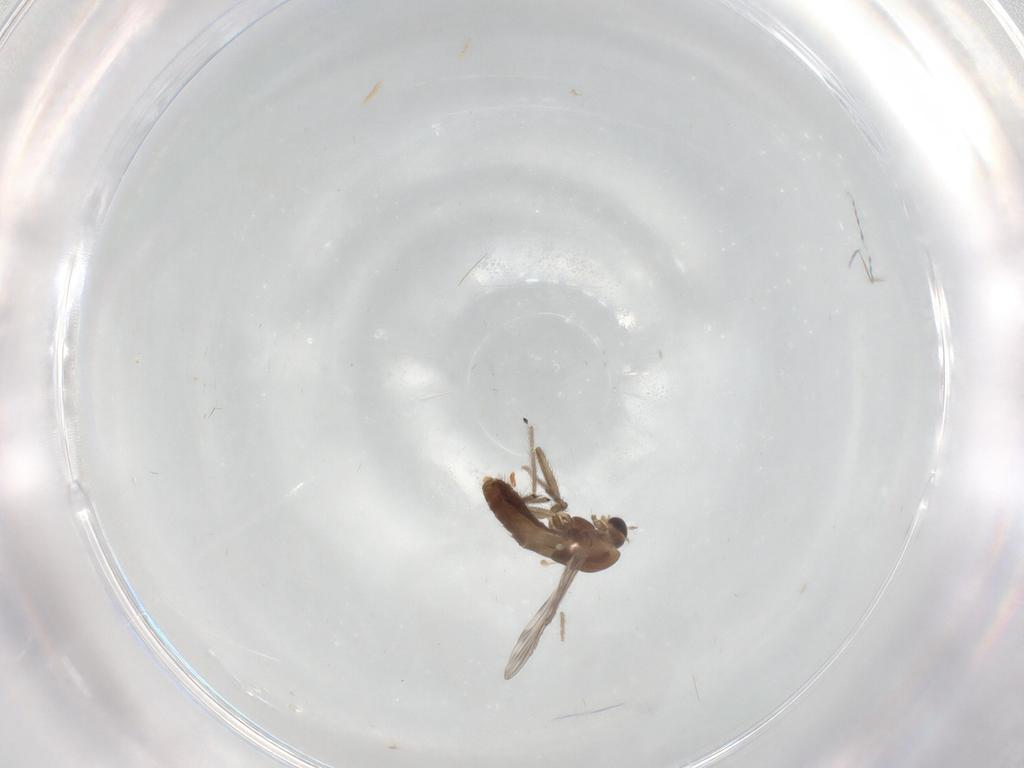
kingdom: Animalia
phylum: Arthropoda
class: Insecta
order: Diptera
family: Chironomidae
